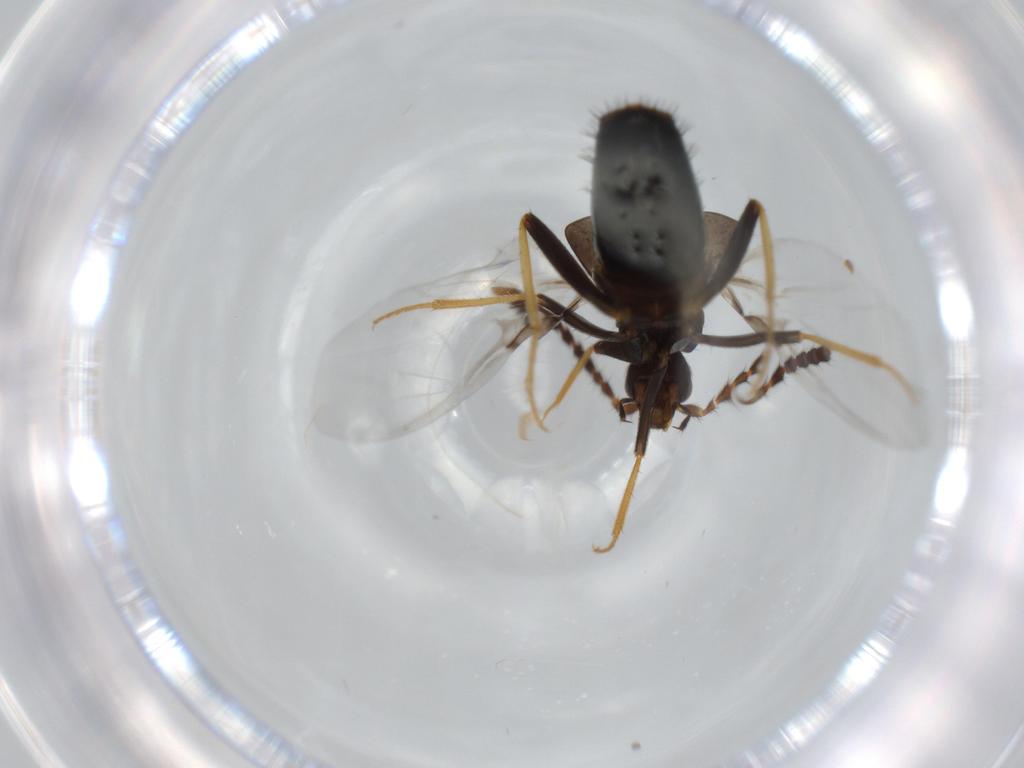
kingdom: Animalia
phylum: Arthropoda
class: Insecta
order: Coleoptera
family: Staphylinidae
